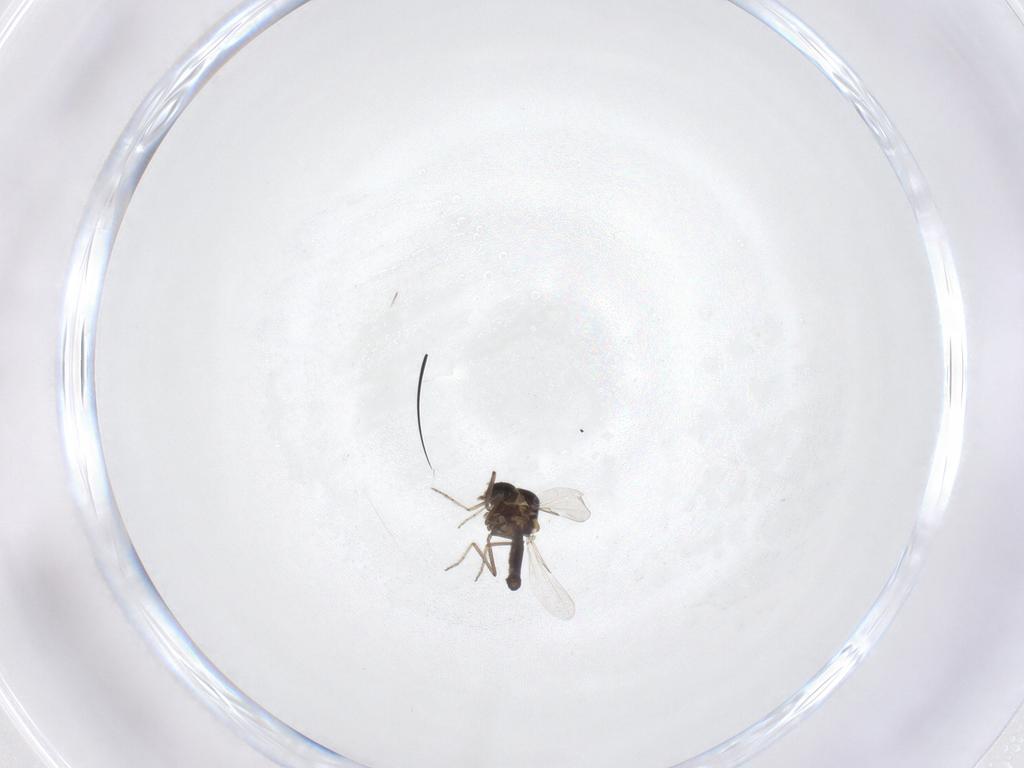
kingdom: Animalia
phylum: Arthropoda
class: Insecta
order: Diptera
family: Ceratopogonidae
